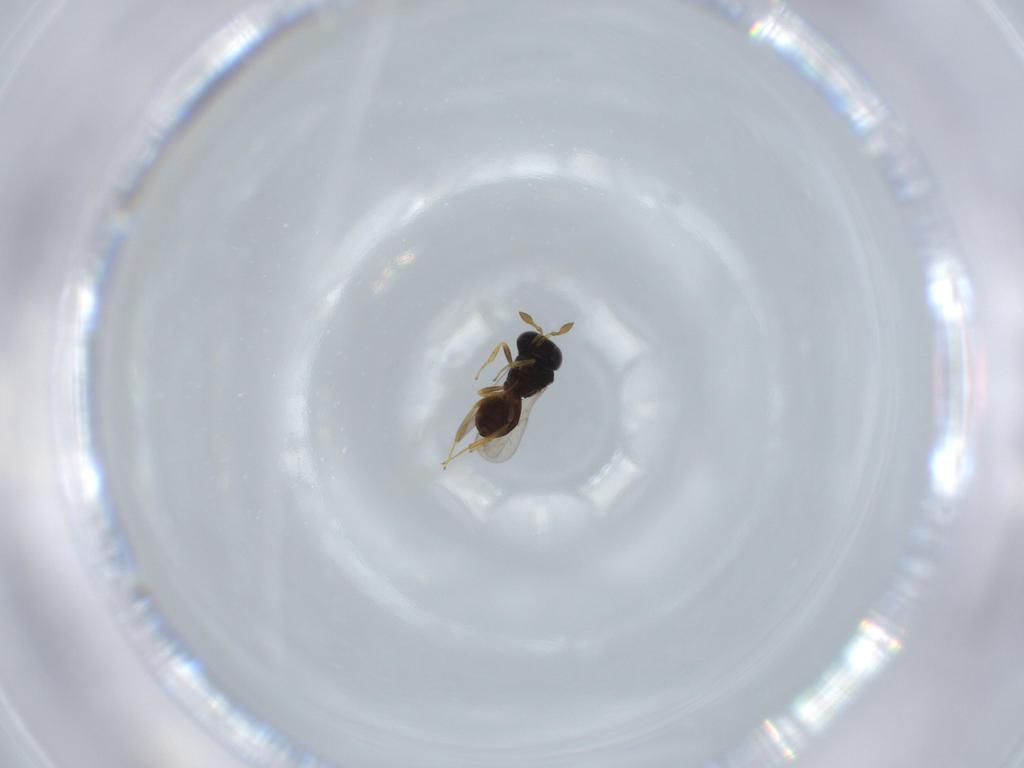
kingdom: Animalia
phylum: Arthropoda
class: Insecta
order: Hymenoptera
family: Scelionidae
